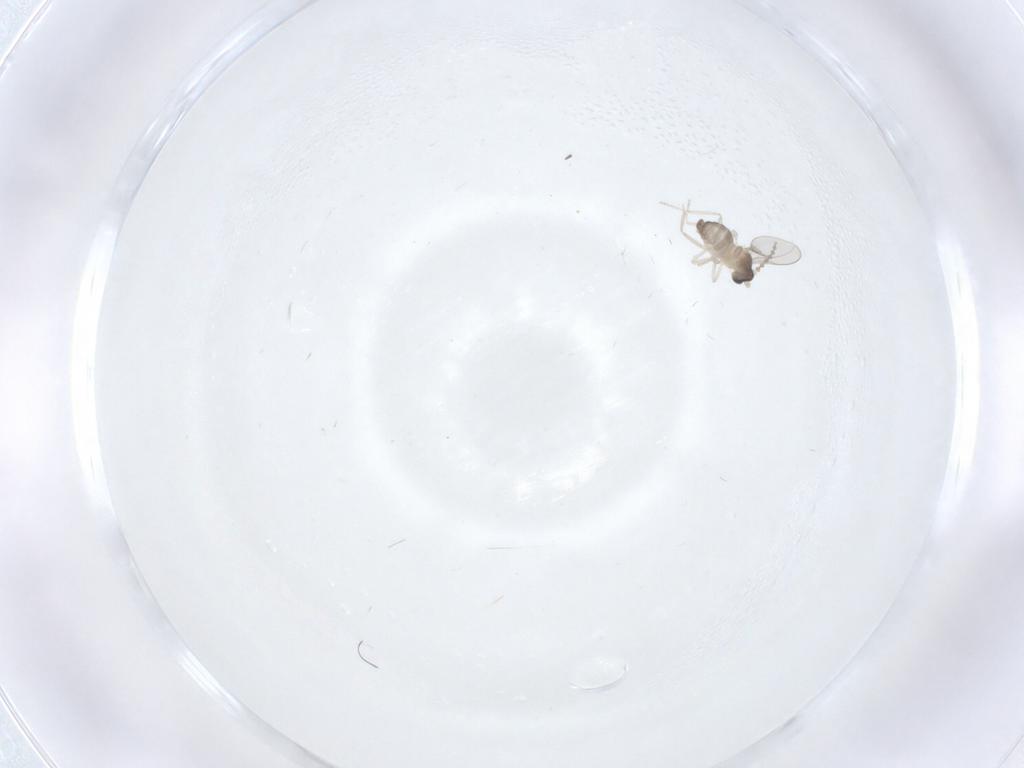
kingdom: Animalia
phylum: Arthropoda
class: Insecta
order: Diptera
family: Chironomidae
